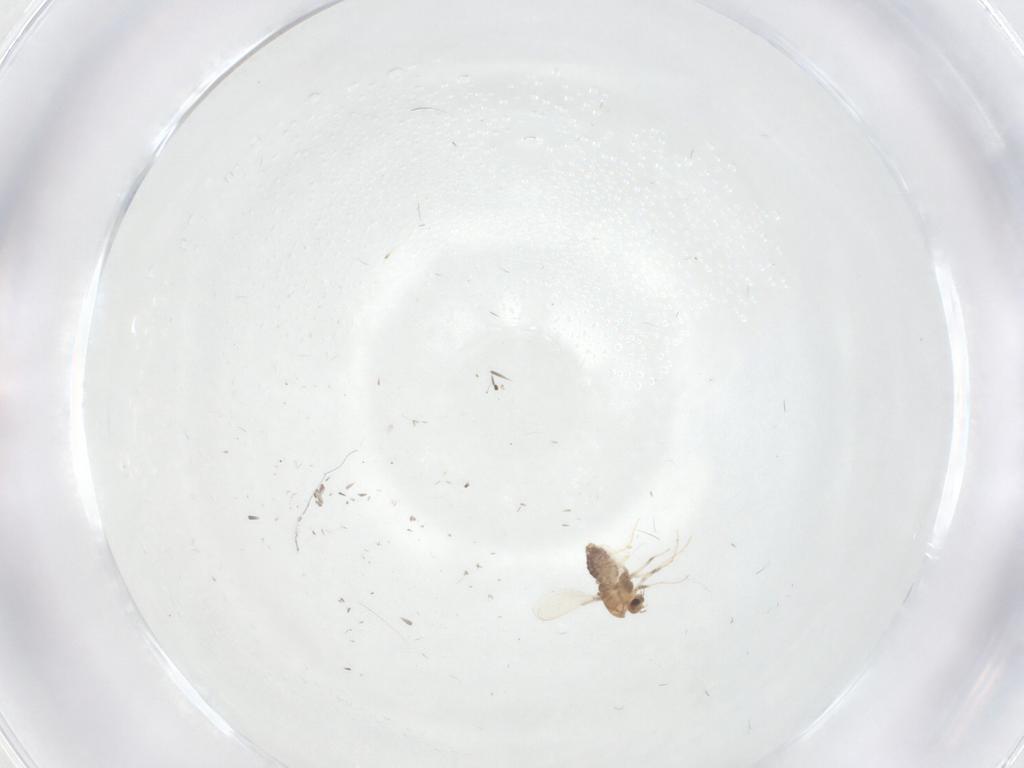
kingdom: Animalia
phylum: Arthropoda
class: Insecta
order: Diptera
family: Chironomidae
